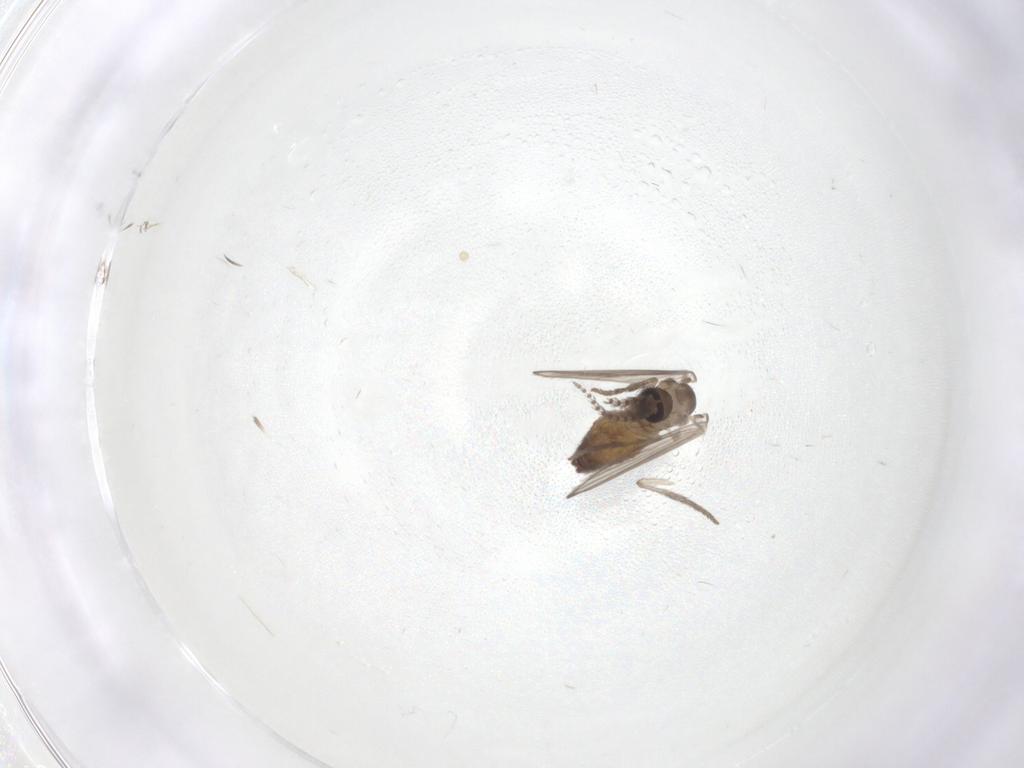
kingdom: Animalia
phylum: Arthropoda
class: Insecta
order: Diptera
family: Psychodidae
